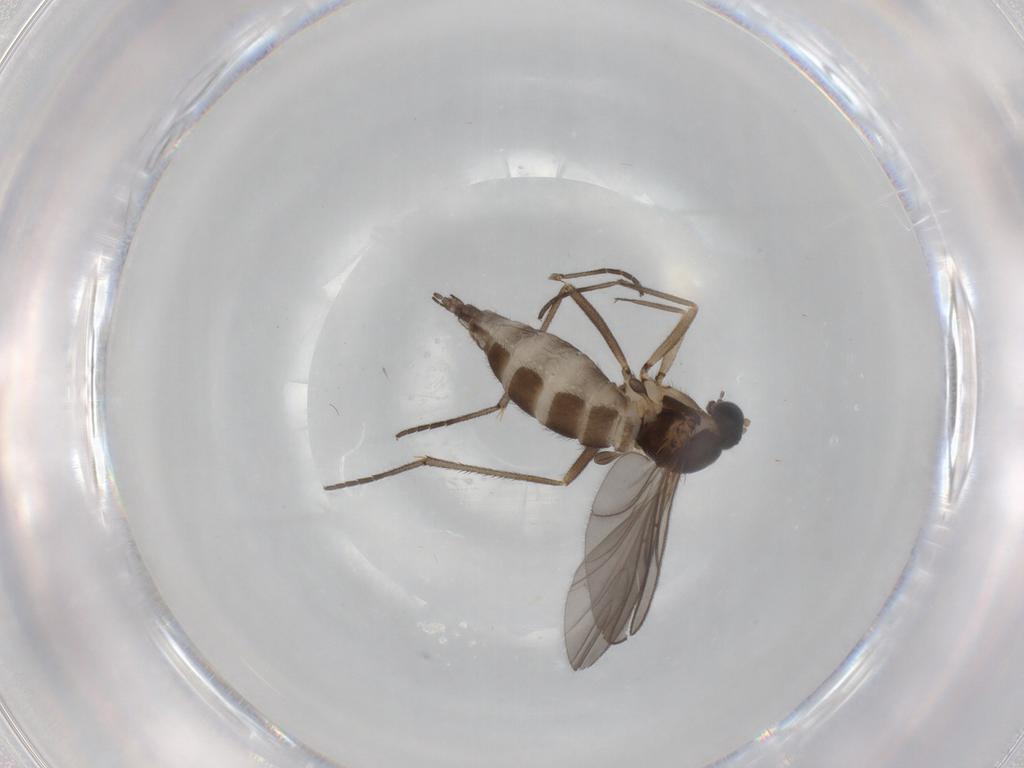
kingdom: Animalia
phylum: Arthropoda
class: Insecta
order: Diptera
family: Sciaridae
